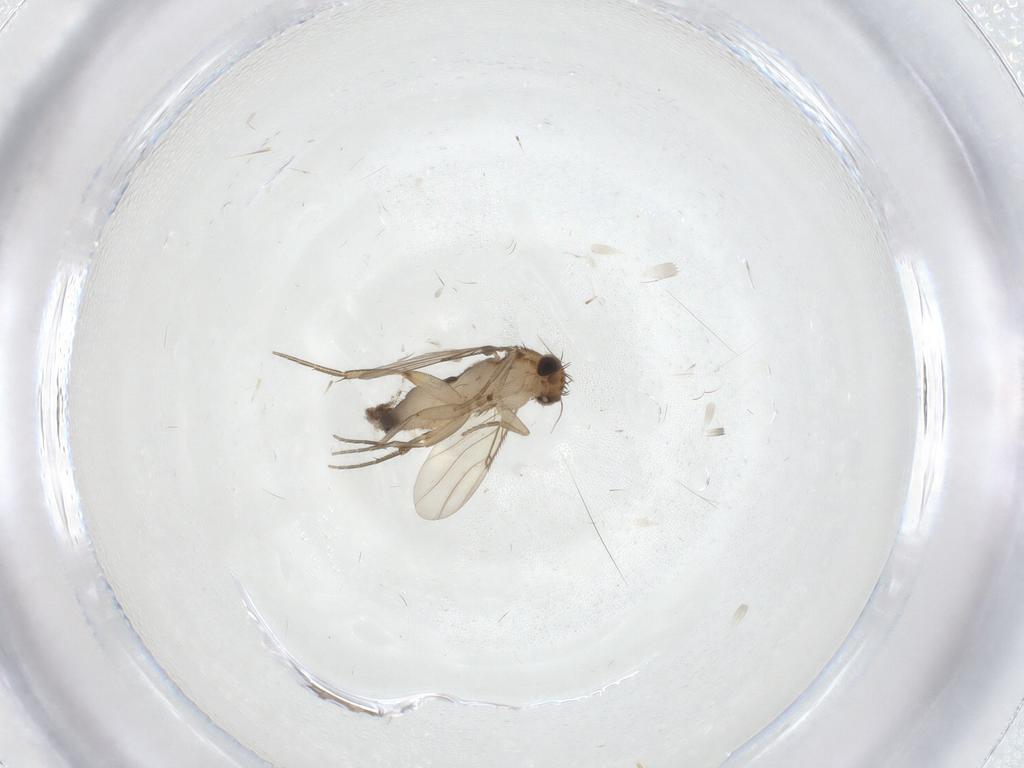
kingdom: Animalia
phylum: Arthropoda
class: Insecta
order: Diptera
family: Phoridae
